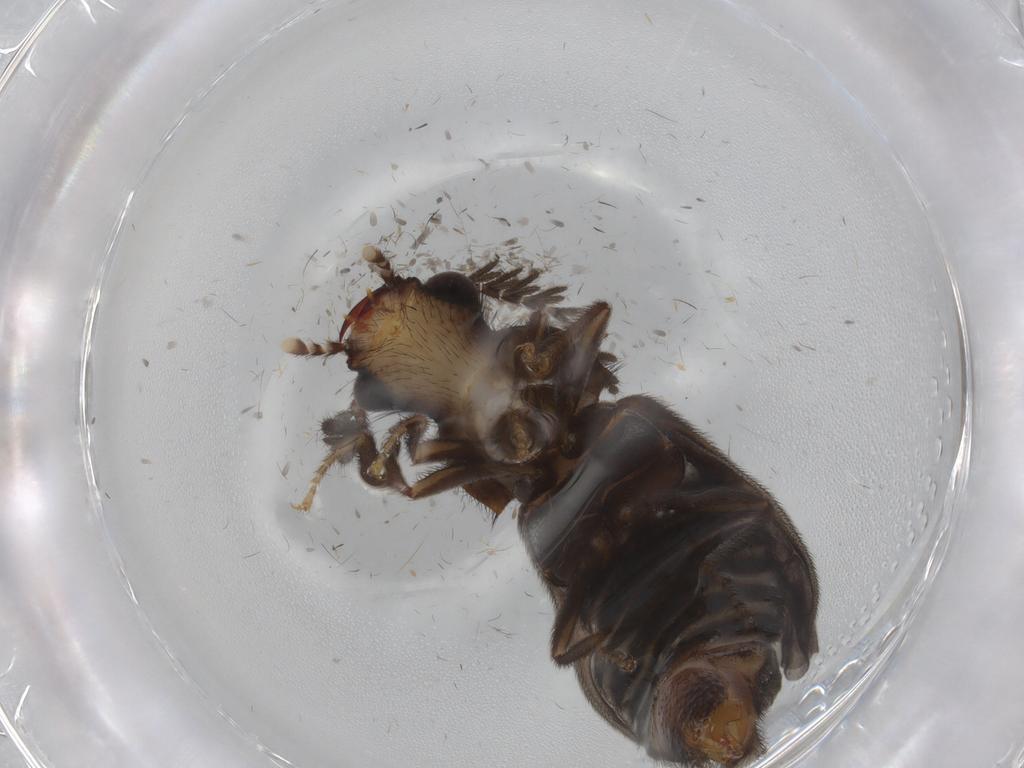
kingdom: Animalia
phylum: Arthropoda
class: Insecta
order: Coleoptera
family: Phengodidae
